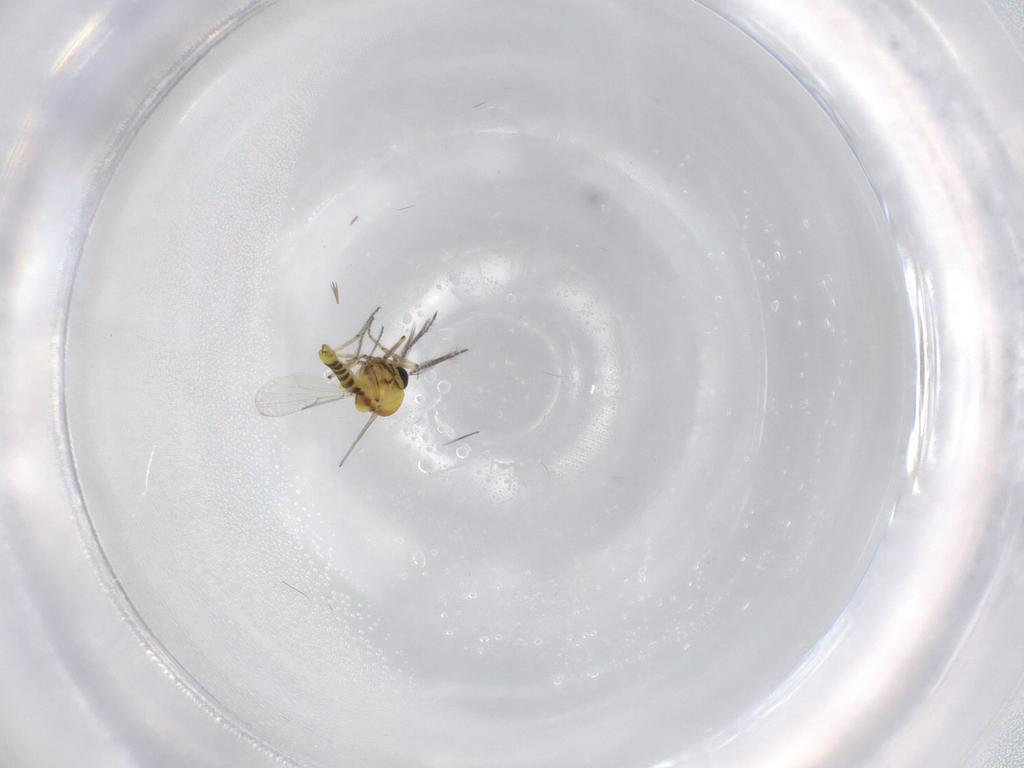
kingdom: Animalia
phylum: Arthropoda
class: Insecta
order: Diptera
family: Ceratopogonidae
